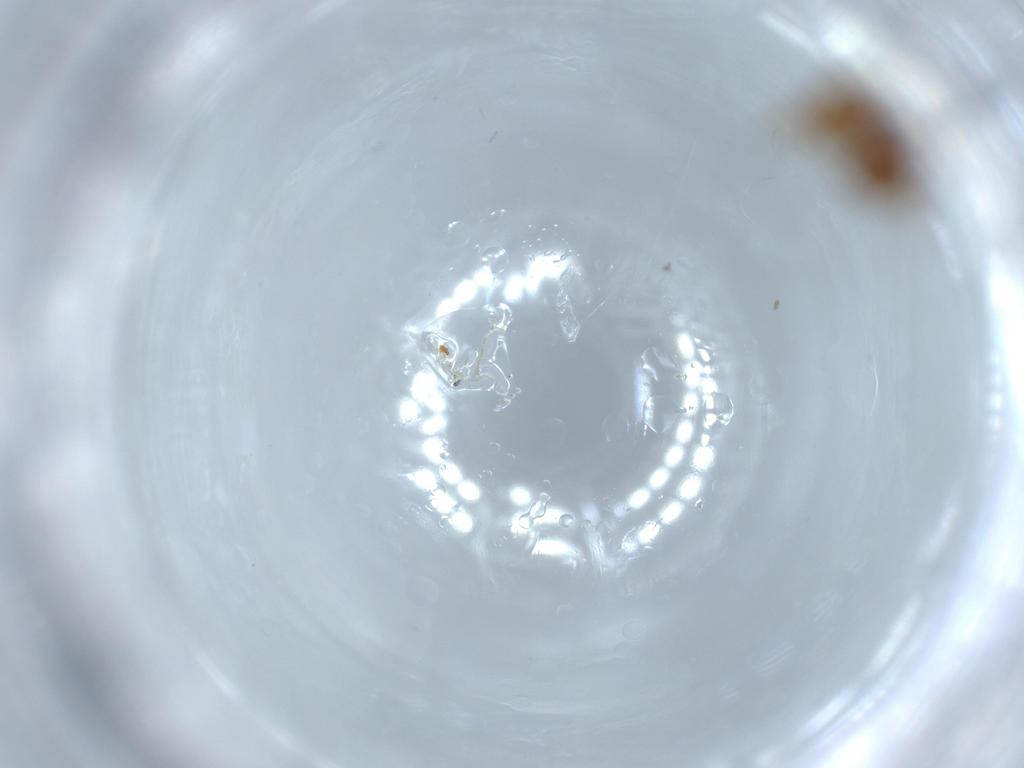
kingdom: Animalia
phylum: Arthropoda
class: Insecta
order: Hymenoptera
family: Formicidae
